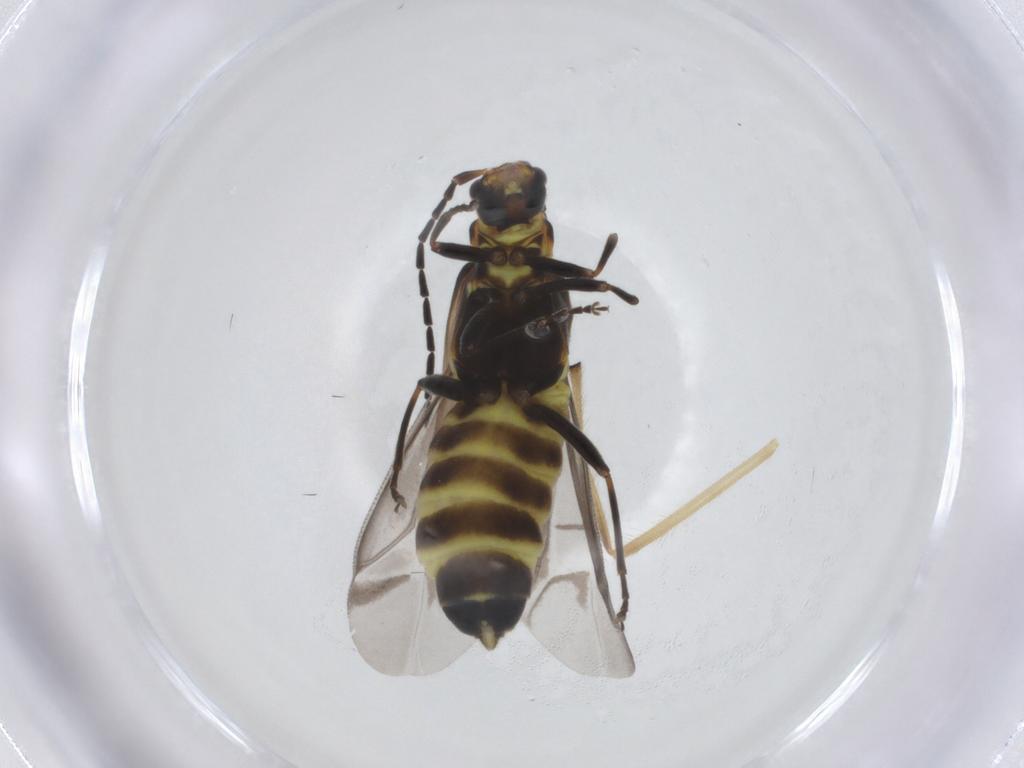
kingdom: Animalia
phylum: Arthropoda
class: Insecta
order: Coleoptera
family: Cantharidae
